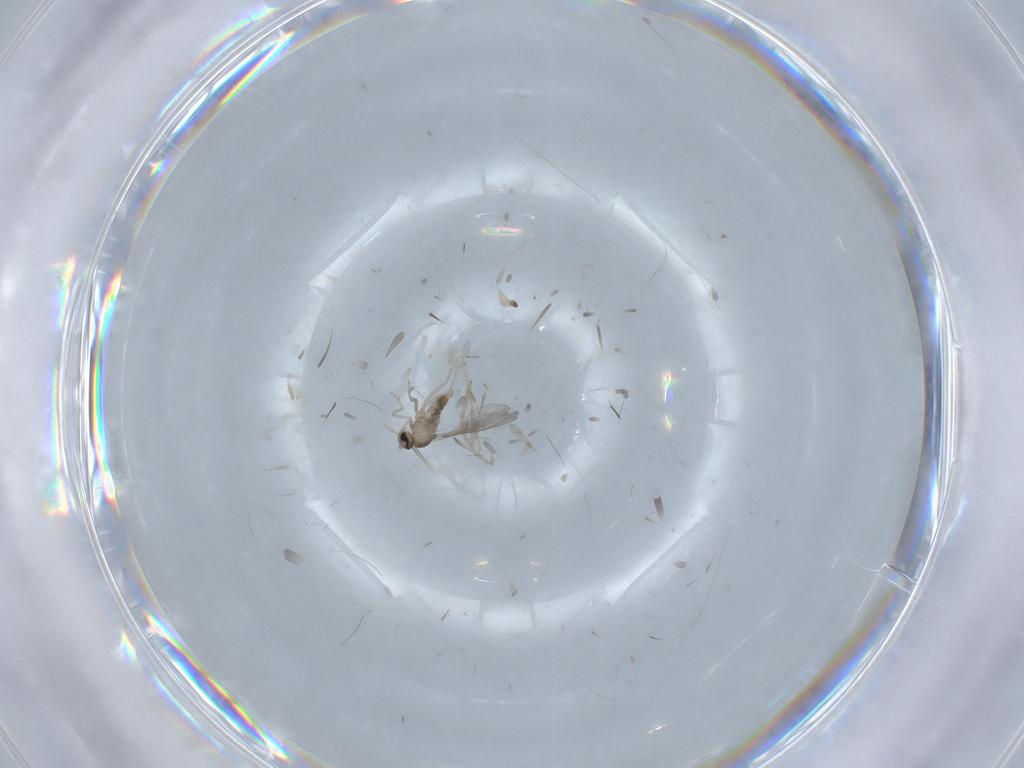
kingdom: Animalia
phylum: Arthropoda
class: Insecta
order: Diptera
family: Cecidomyiidae
